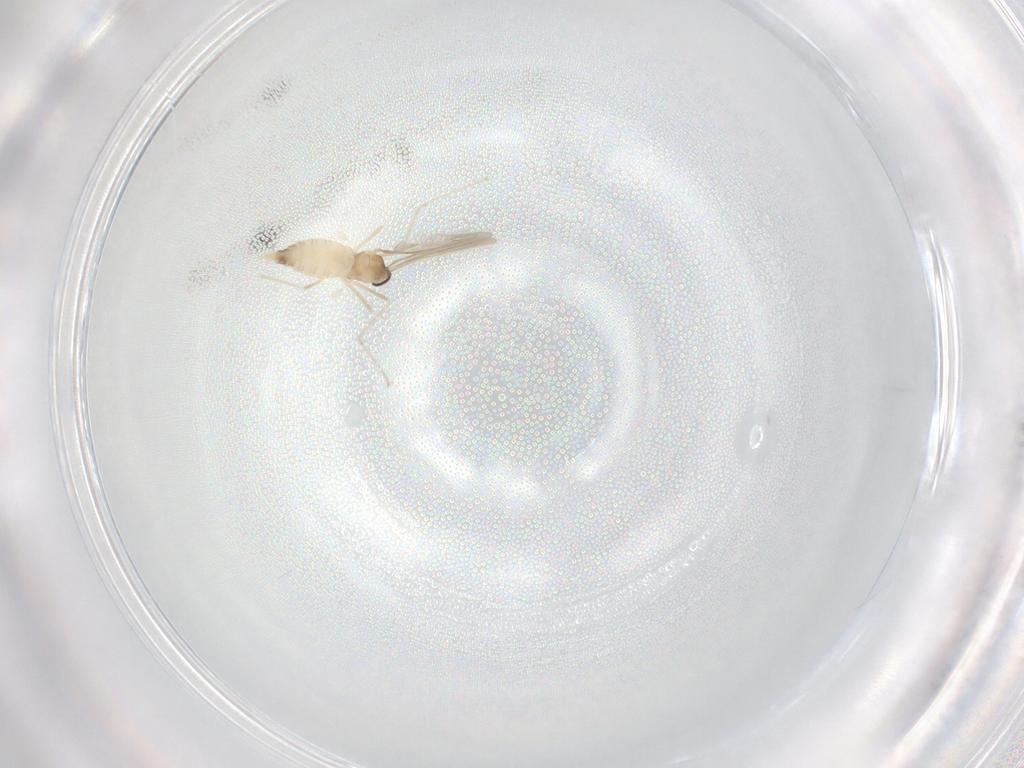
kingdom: Animalia
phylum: Arthropoda
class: Insecta
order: Diptera
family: Cecidomyiidae
